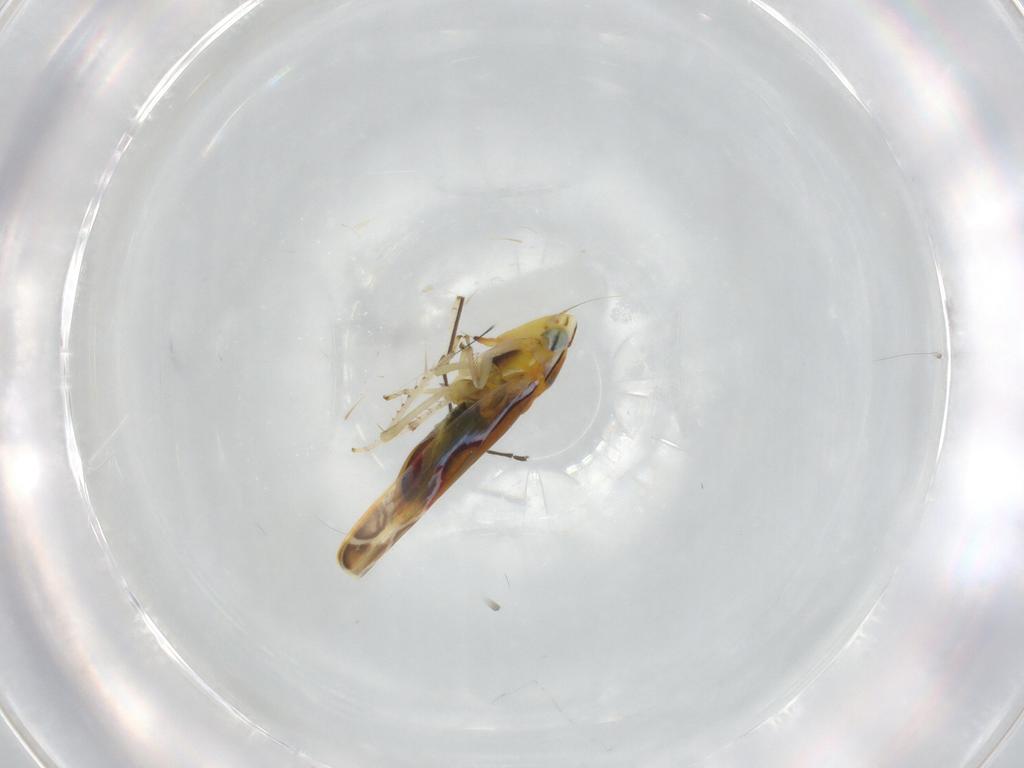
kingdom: Animalia
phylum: Arthropoda
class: Insecta
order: Hemiptera
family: Cicadellidae
